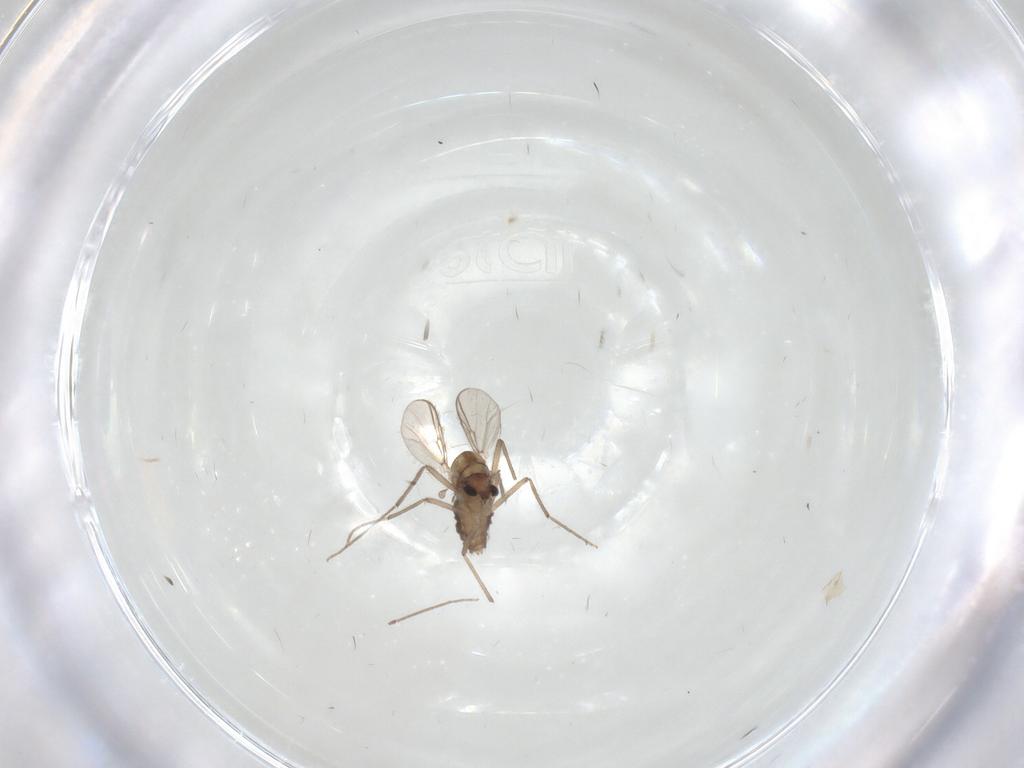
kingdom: Animalia
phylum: Arthropoda
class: Insecta
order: Diptera
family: Chironomidae
